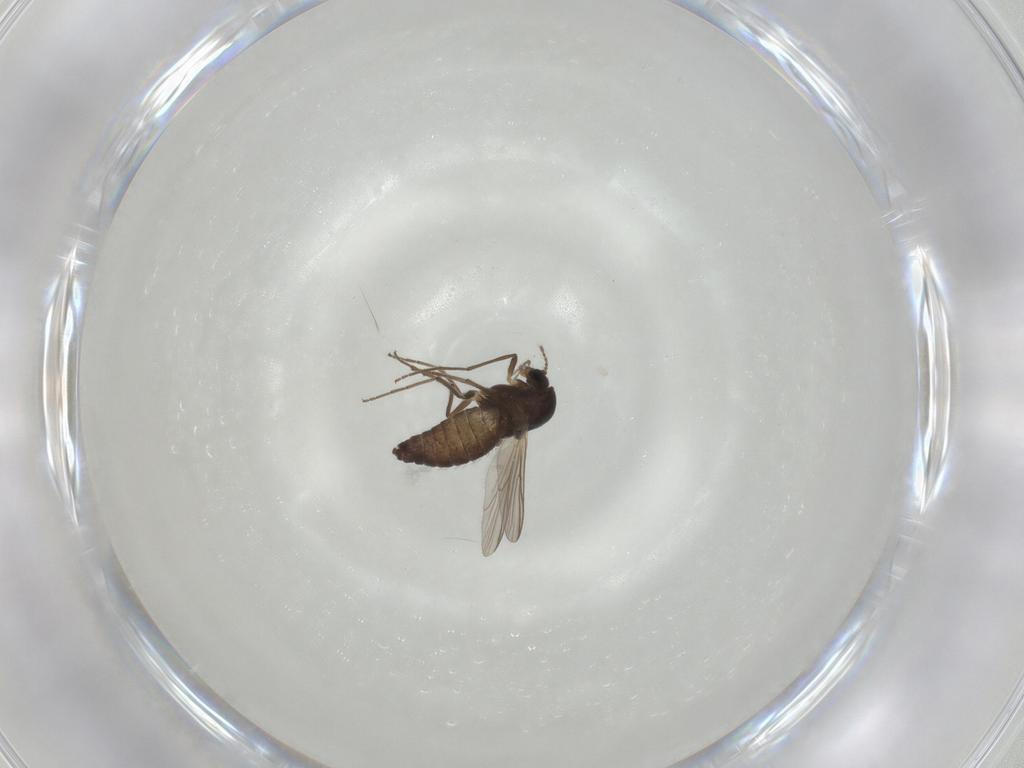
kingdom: Animalia
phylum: Arthropoda
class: Insecta
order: Diptera
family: Chironomidae
